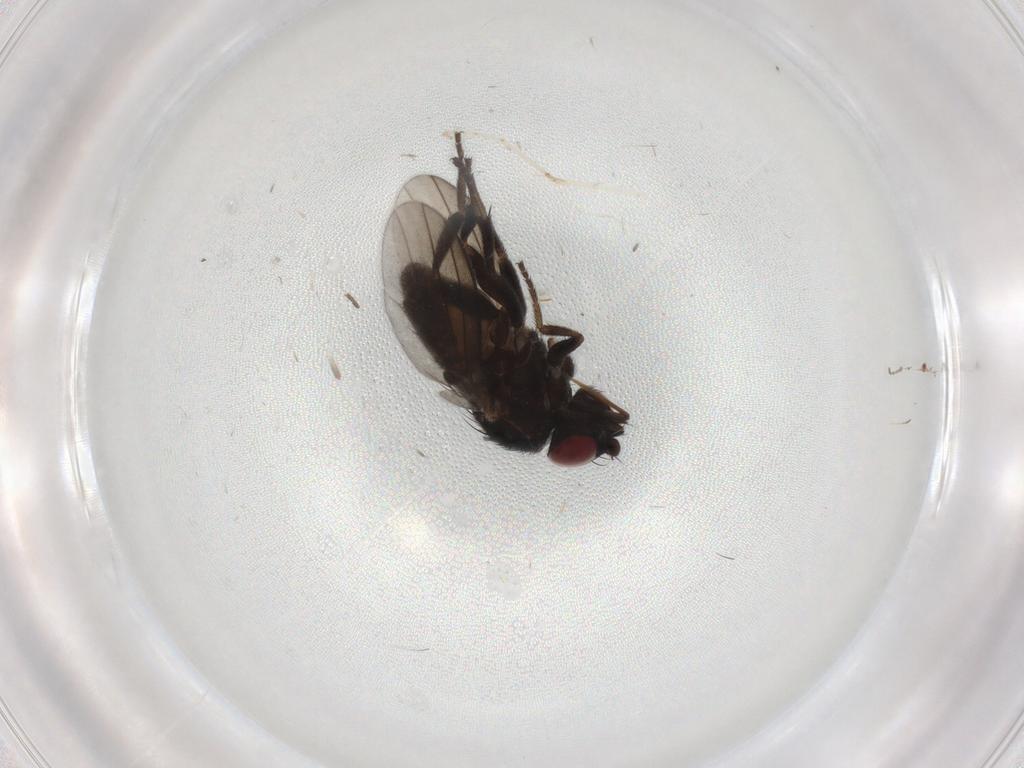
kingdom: Animalia
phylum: Arthropoda
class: Insecta
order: Diptera
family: Milichiidae
